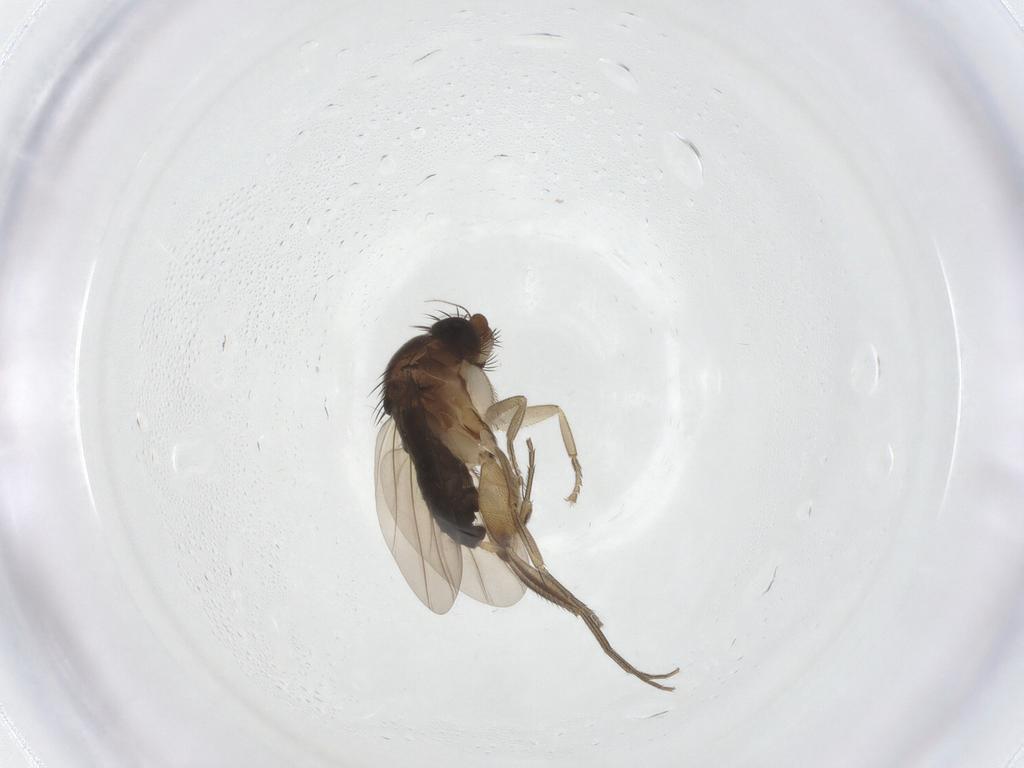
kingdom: Animalia
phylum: Arthropoda
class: Insecta
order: Diptera
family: Phoridae
